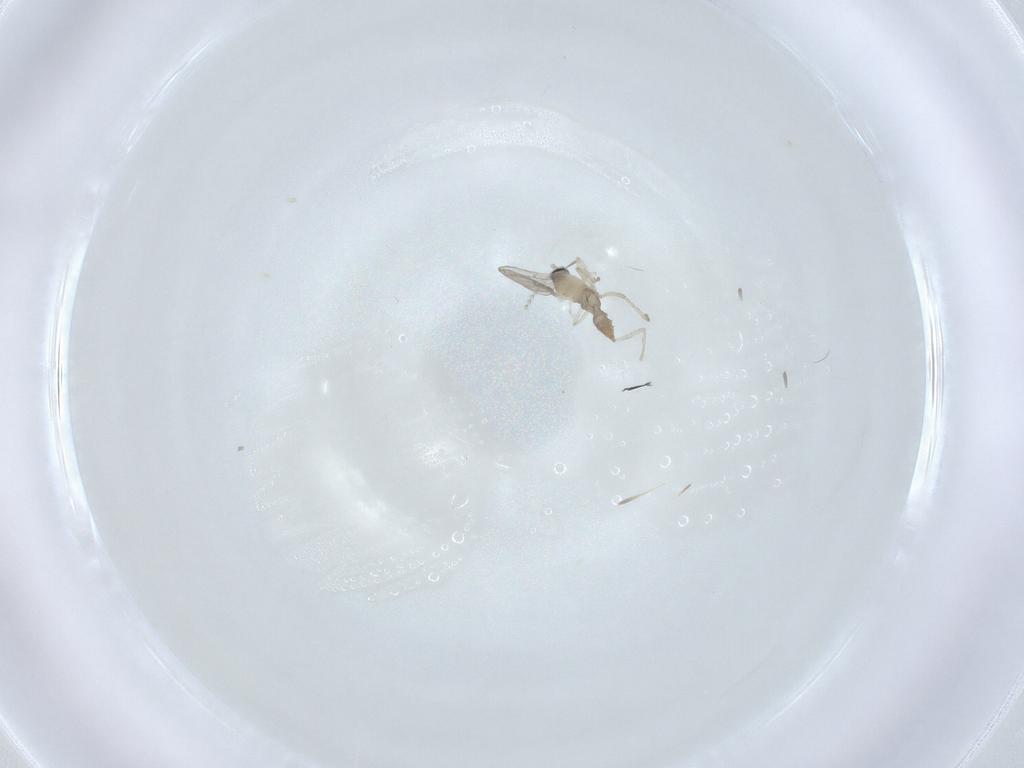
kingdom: Animalia
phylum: Arthropoda
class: Insecta
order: Diptera
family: Cecidomyiidae
